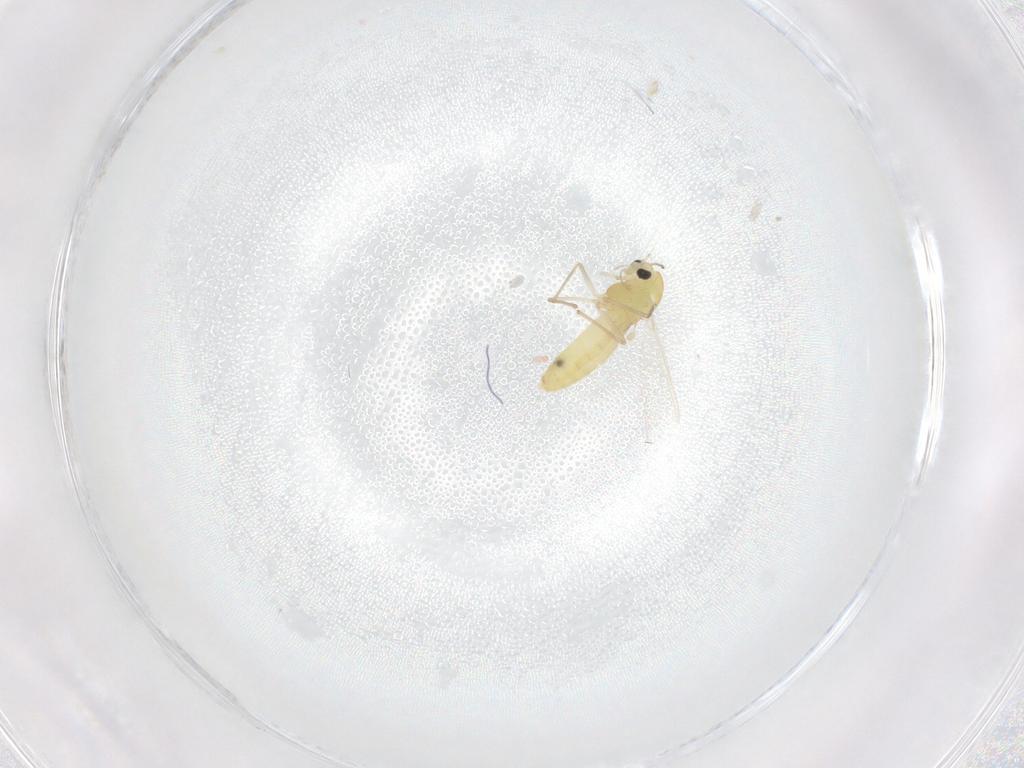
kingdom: Animalia
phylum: Arthropoda
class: Insecta
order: Diptera
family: Chironomidae
